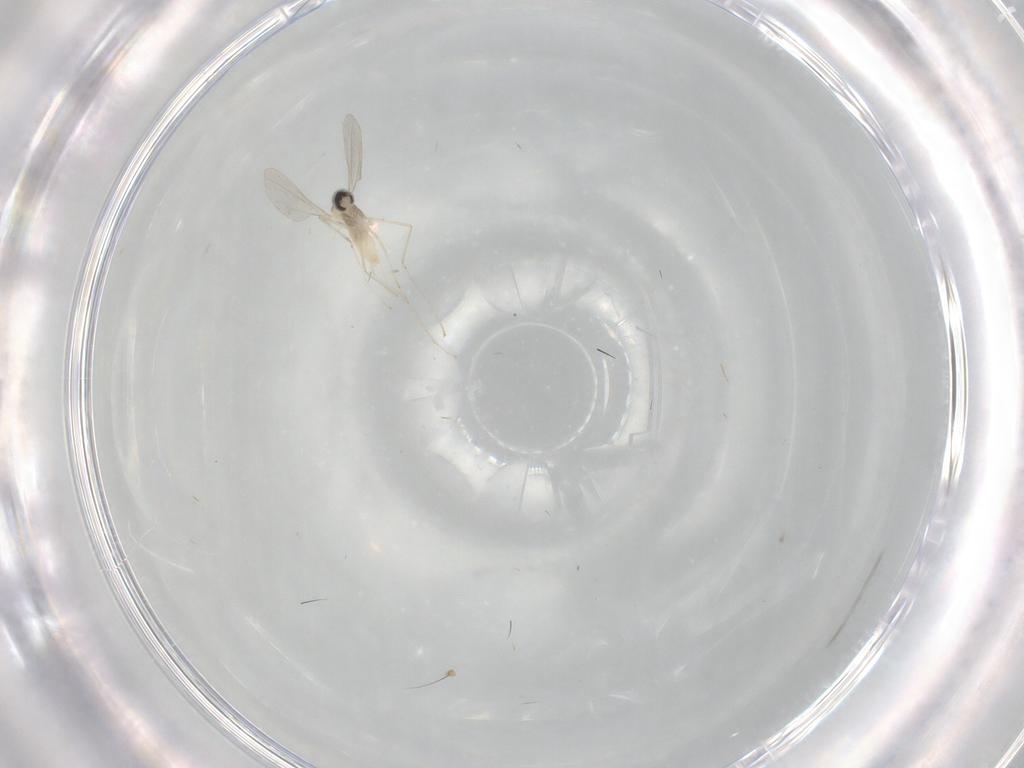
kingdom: Animalia
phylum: Arthropoda
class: Insecta
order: Diptera
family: Dolichopodidae
